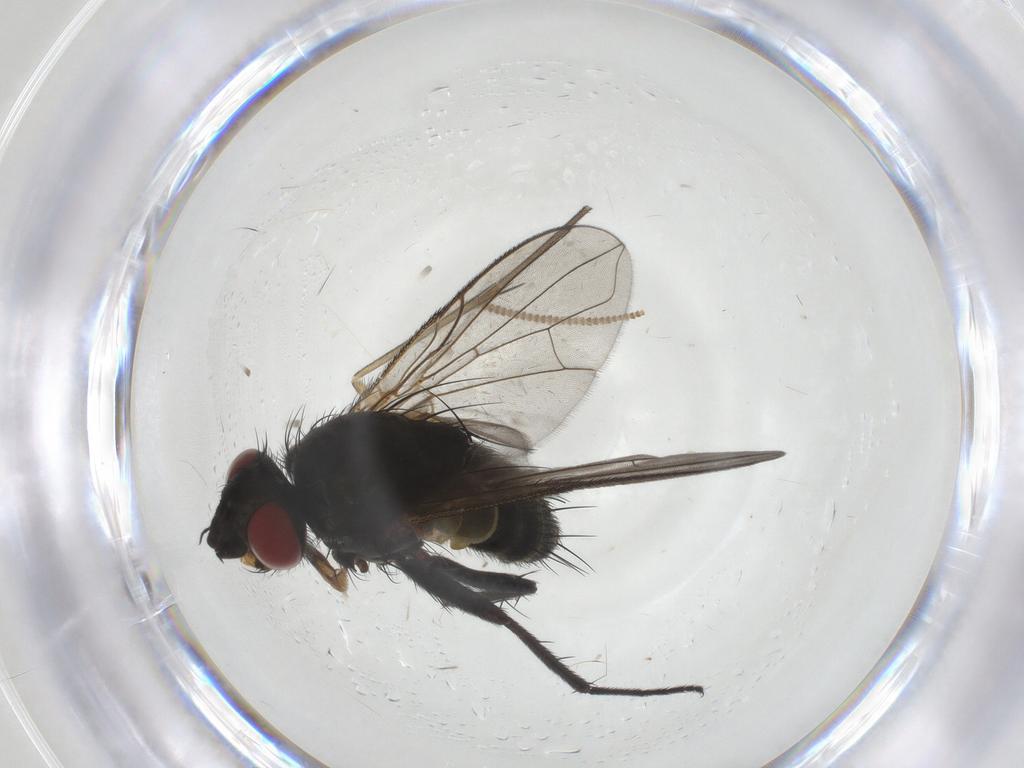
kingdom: Animalia
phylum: Arthropoda
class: Insecta
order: Diptera
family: Keroplatidae
